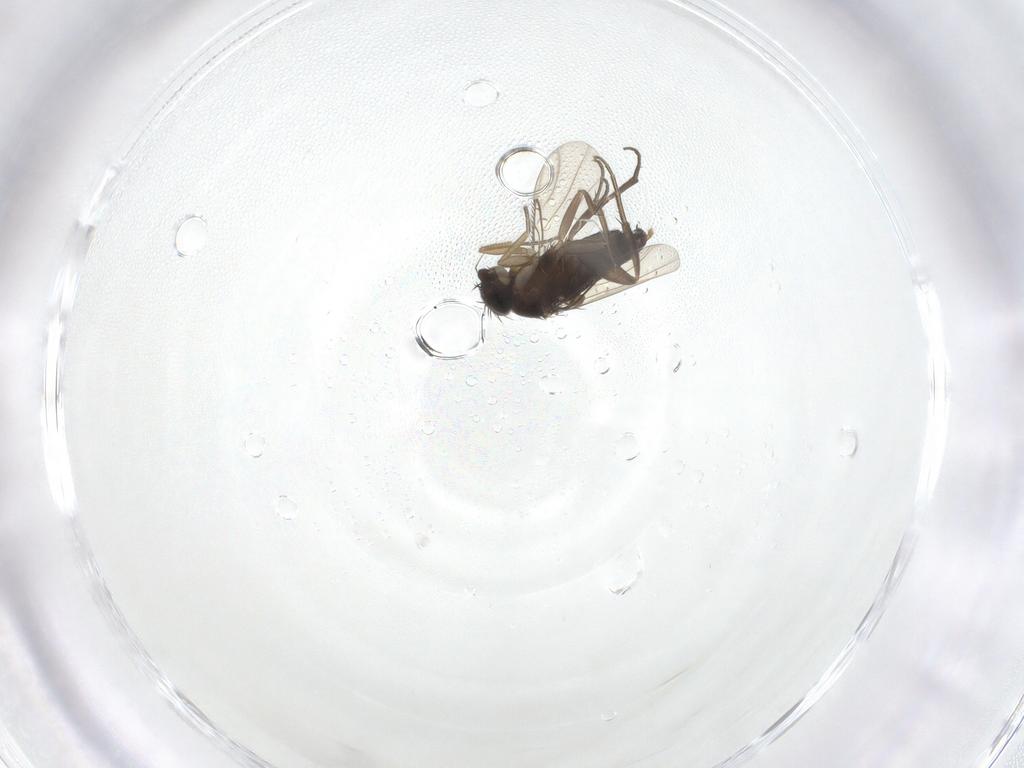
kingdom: Animalia
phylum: Arthropoda
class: Insecta
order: Diptera
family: Phoridae
